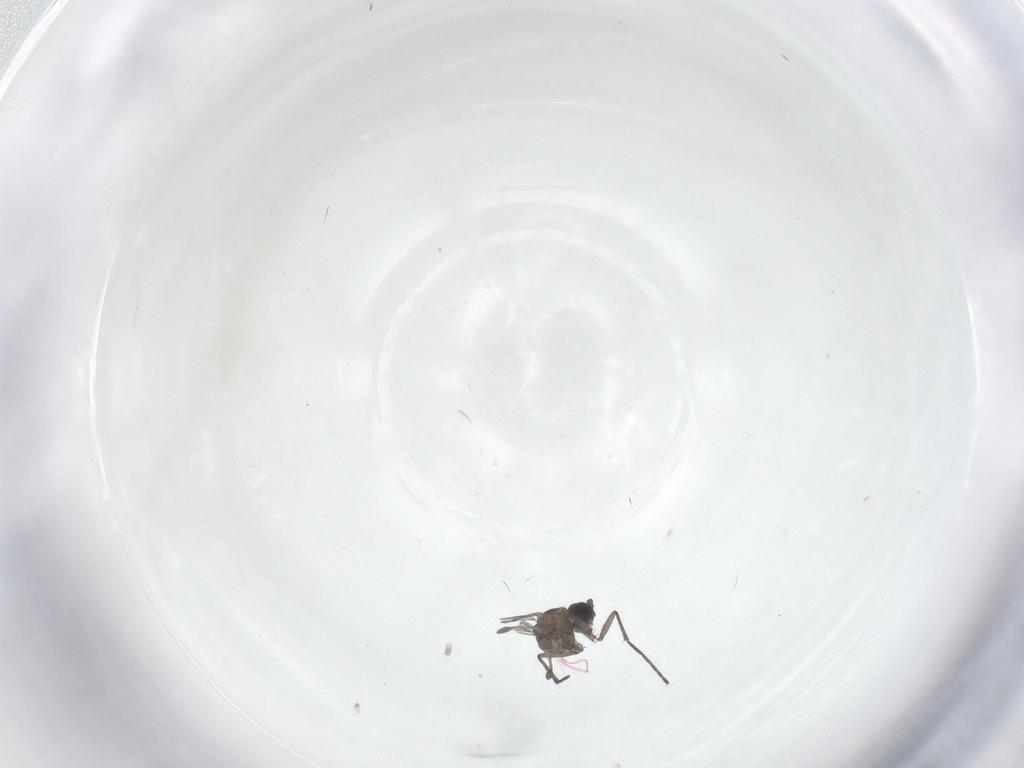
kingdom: Animalia
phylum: Arthropoda
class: Insecta
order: Diptera
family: Sciaridae
